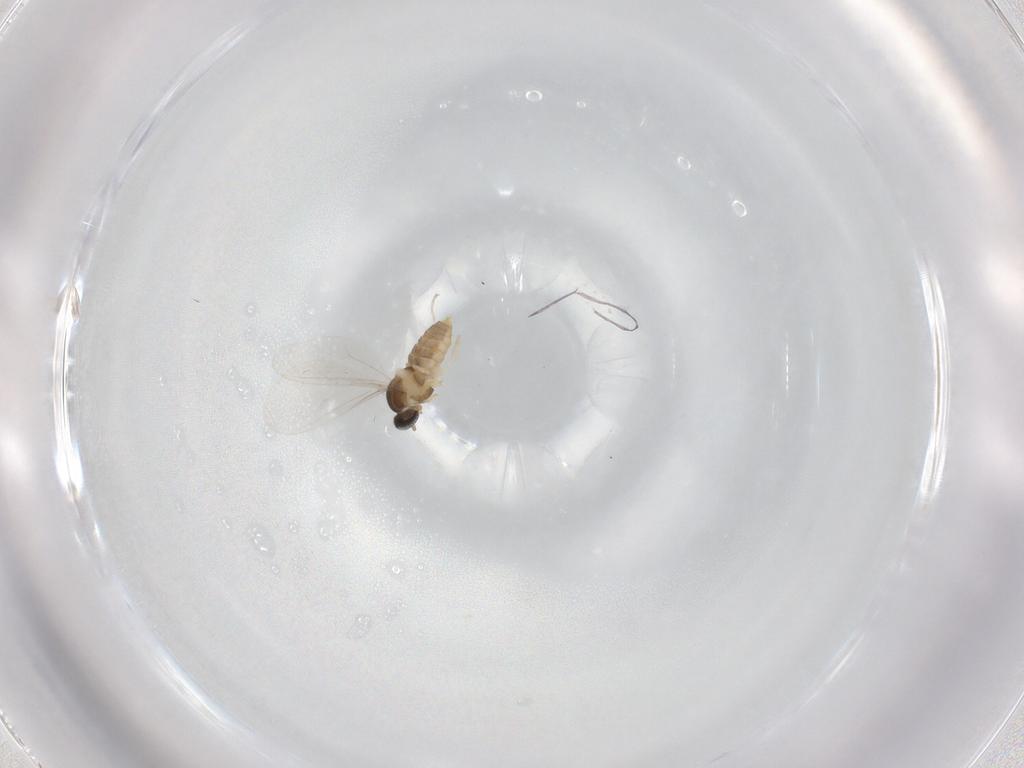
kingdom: Animalia
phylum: Arthropoda
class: Insecta
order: Diptera
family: Cecidomyiidae
